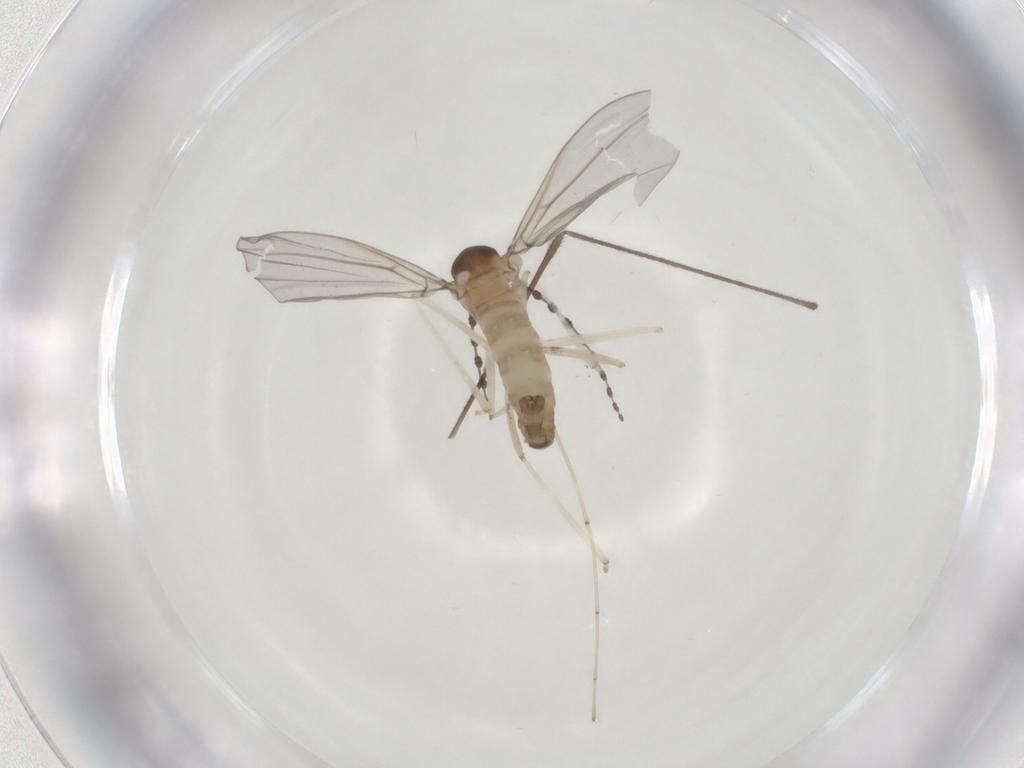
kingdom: Animalia
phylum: Arthropoda
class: Insecta
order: Diptera
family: Cecidomyiidae
